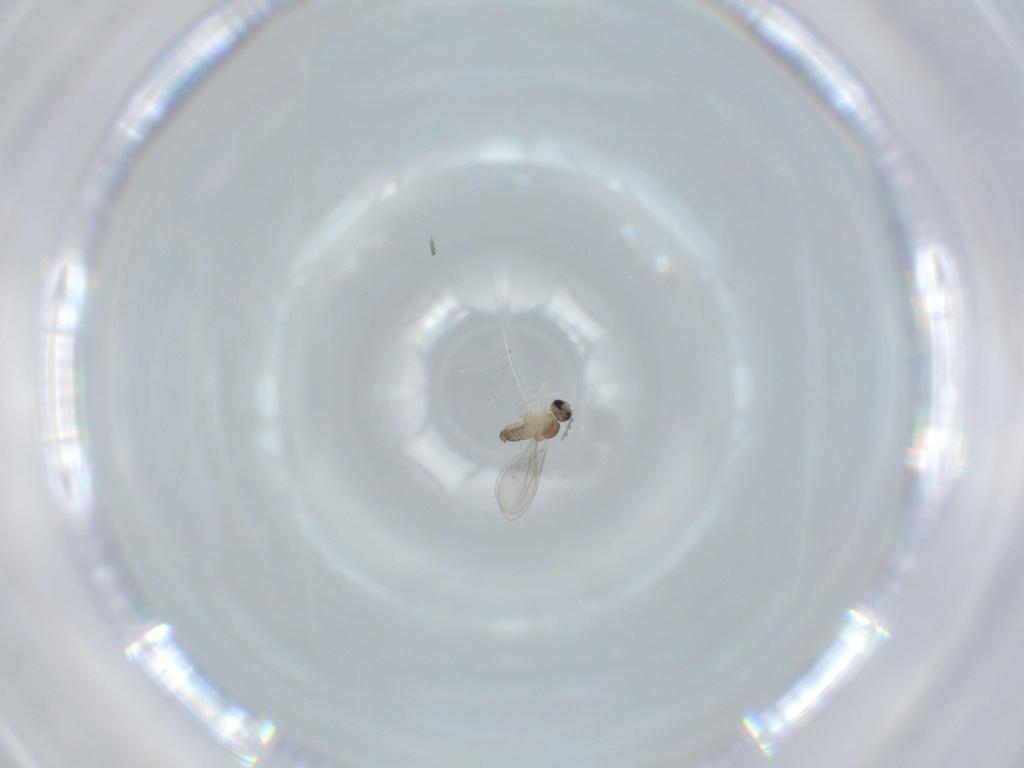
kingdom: Animalia
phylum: Arthropoda
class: Insecta
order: Diptera
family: Cecidomyiidae
